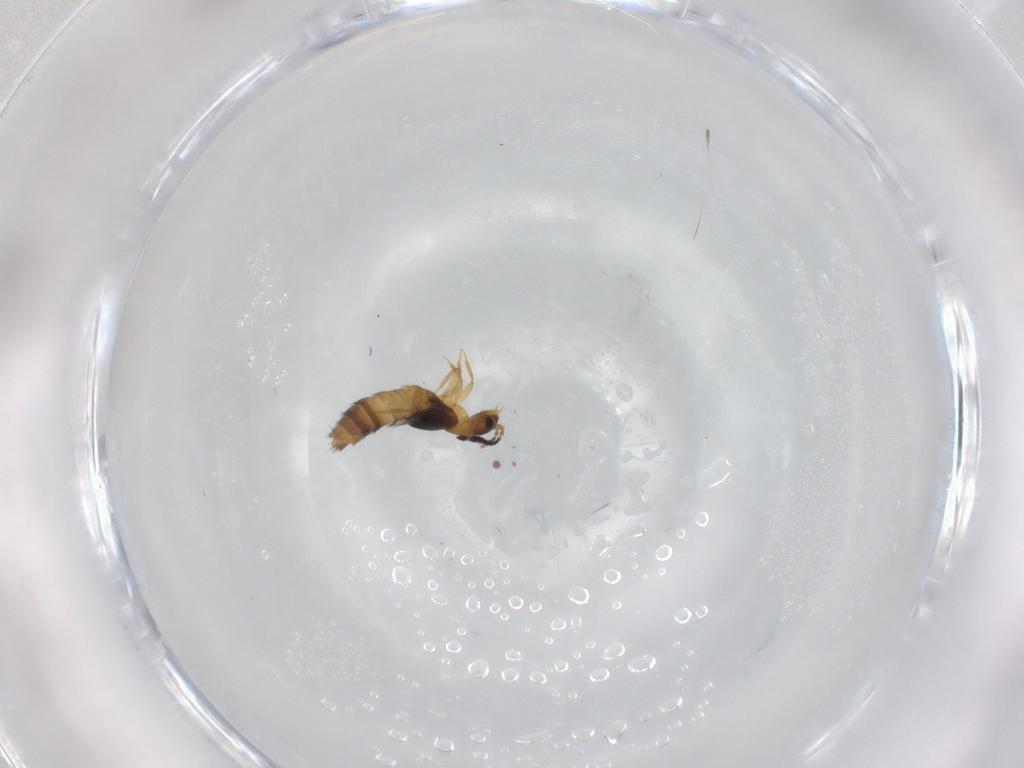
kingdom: Animalia
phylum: Arthropoda
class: Insecta
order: Coleoptera
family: Staphylinidae
